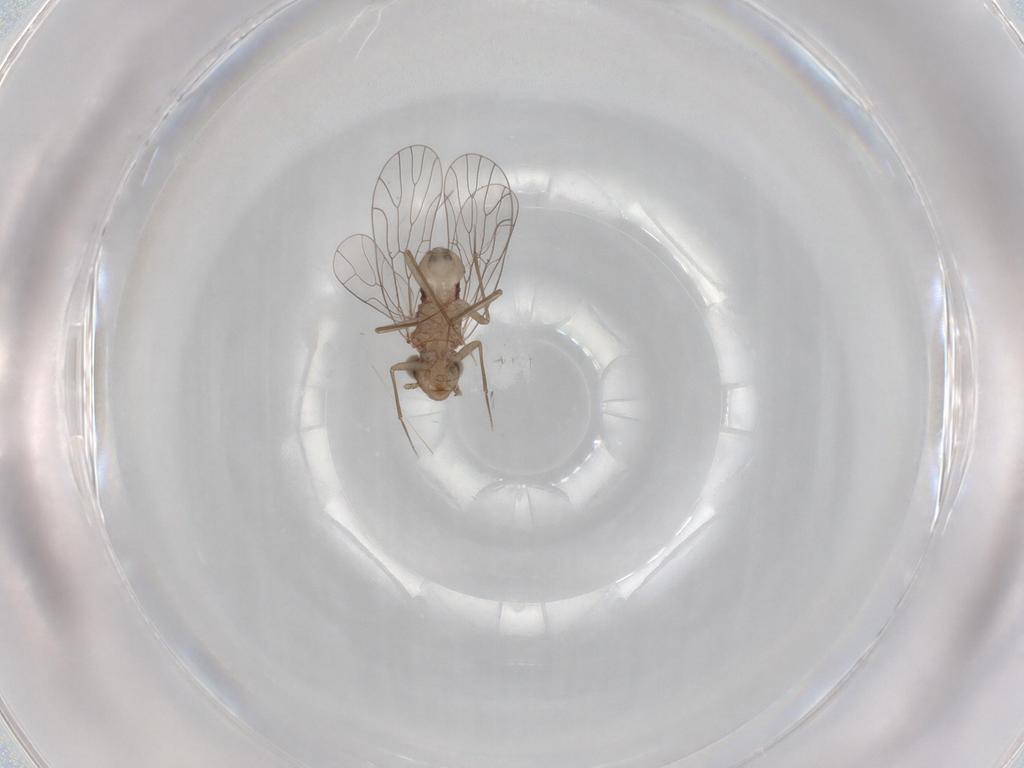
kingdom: Animalia
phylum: Arthropoda
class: Insecta
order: Psocodea
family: Amphientomidae
